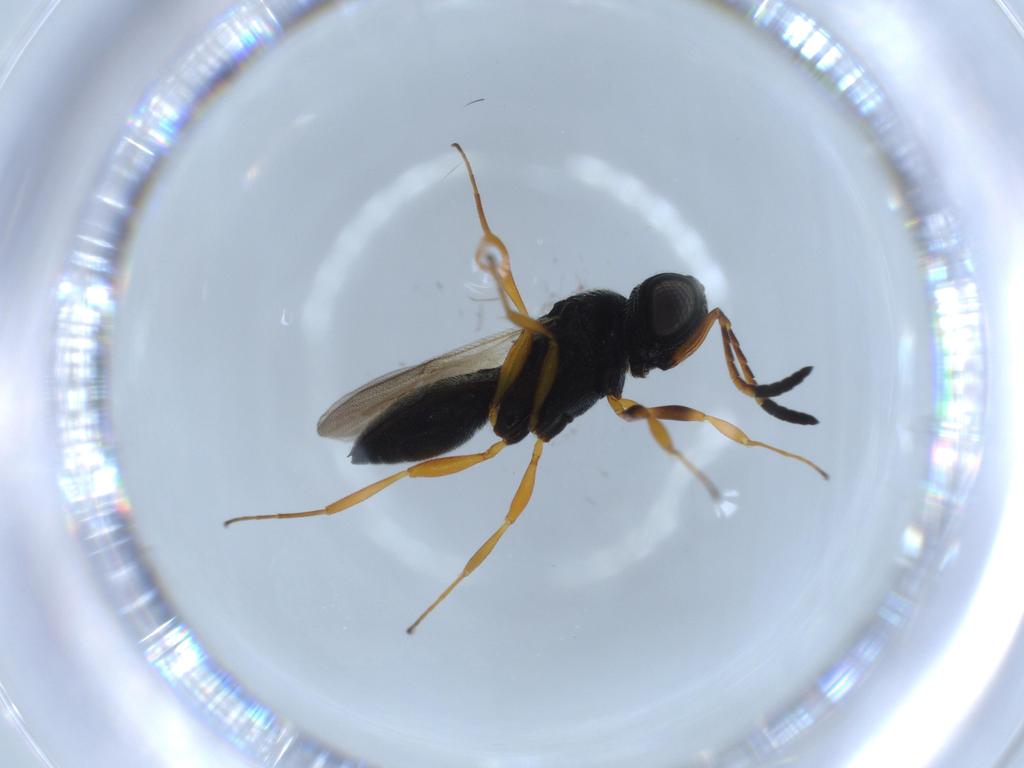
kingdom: Animalia
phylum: Arthropoda
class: Insecta
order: Hymenoptera
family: Scelionidae
